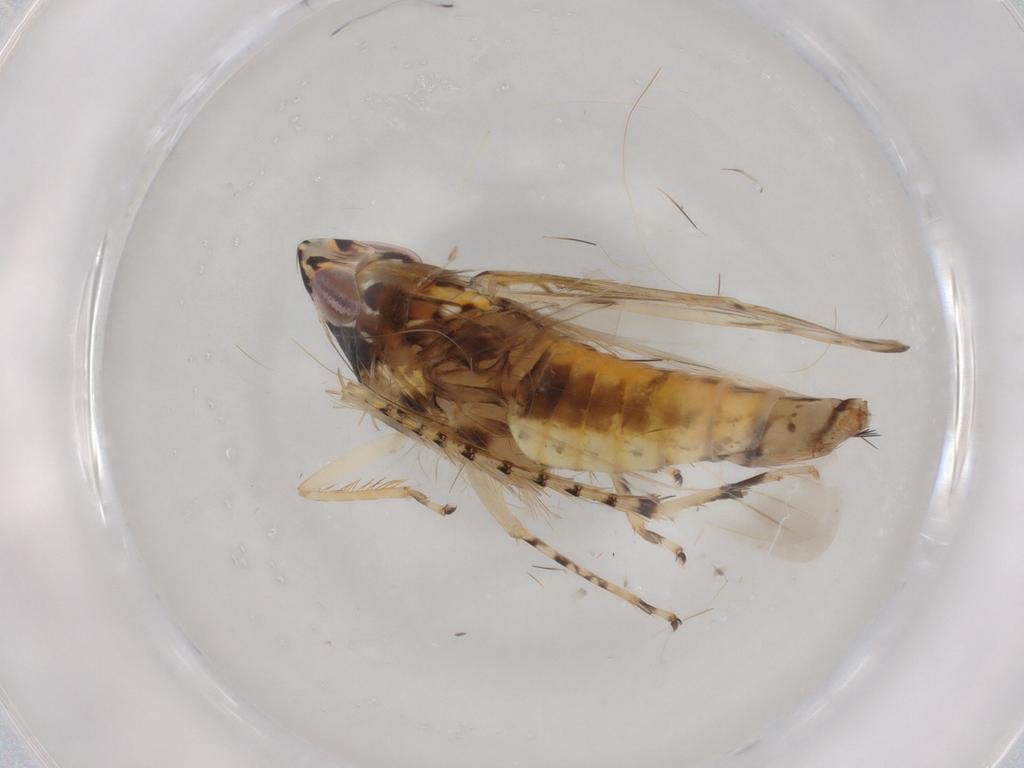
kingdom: Animalia
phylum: Arthropoda
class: Insecta
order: Hemiptera
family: Cicadellidae
